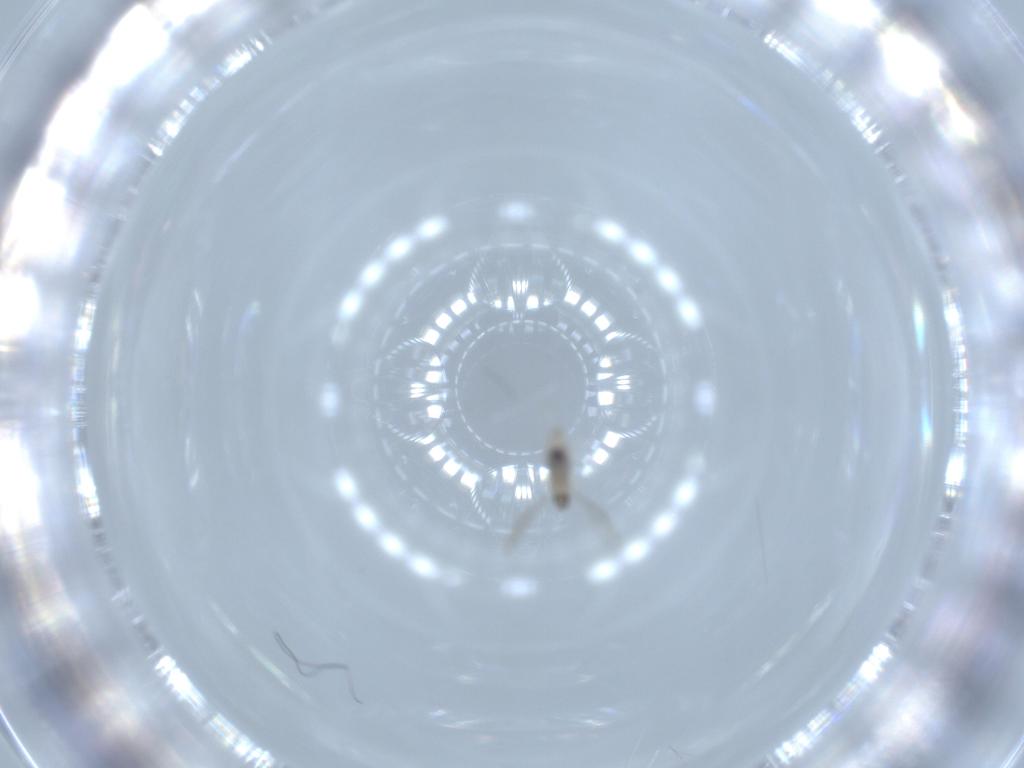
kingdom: Animalia
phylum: Arthropoda
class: Insecta
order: Diptera
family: Cecidomyiidae
